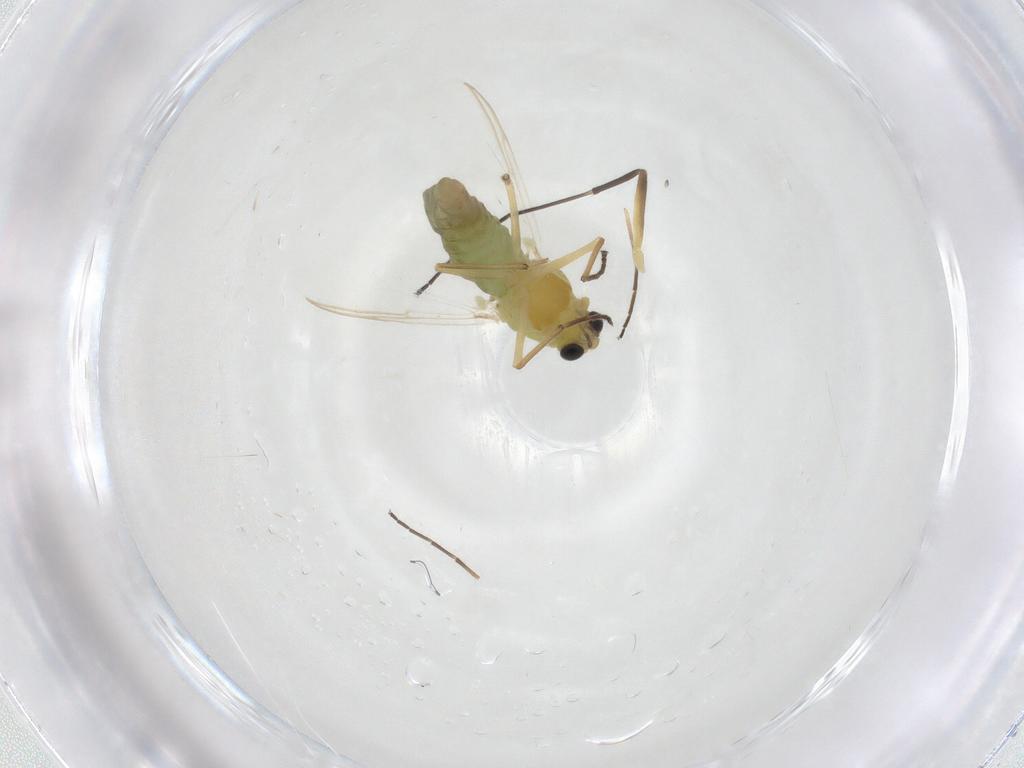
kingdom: Animalia
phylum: Arthropoda
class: Insecta
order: Diptera
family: Chironomidae
